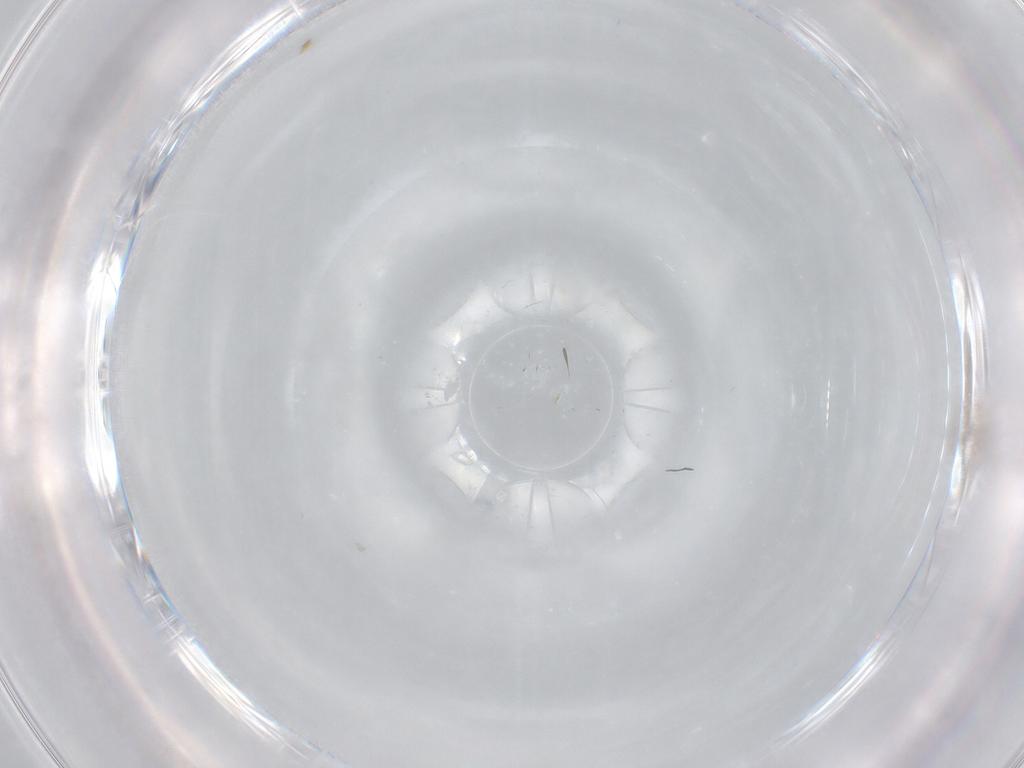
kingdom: Animalia
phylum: Arthropoda
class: Insecta
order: Diptera
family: Cecidomyiidae
